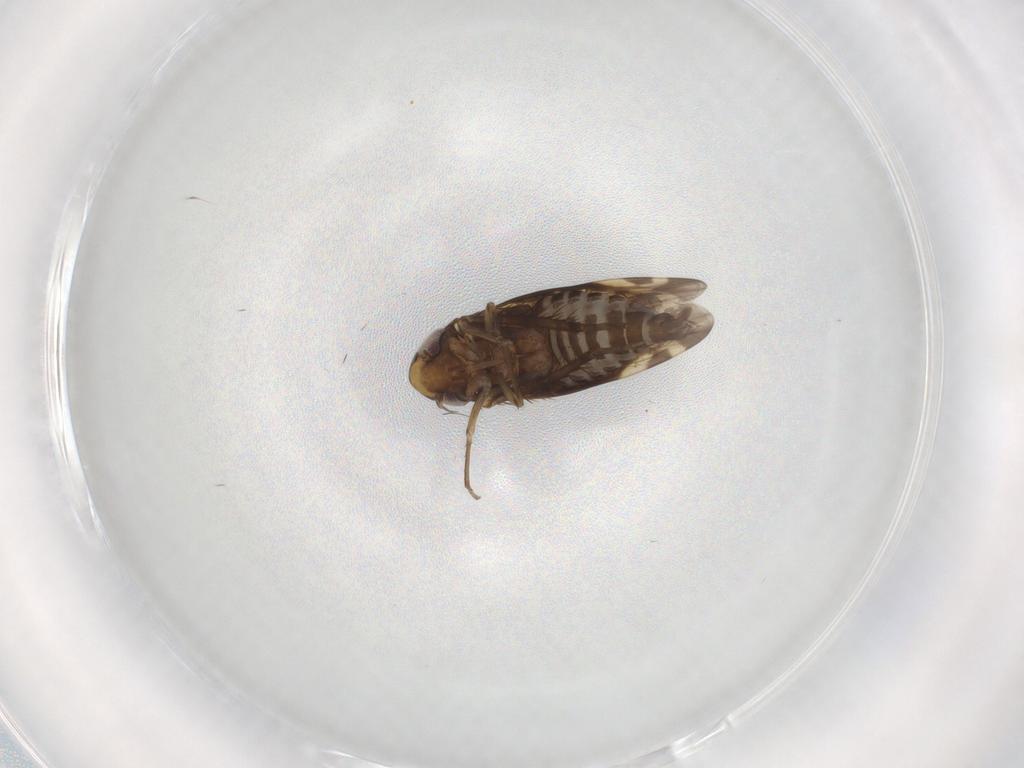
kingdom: Animalia
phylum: Arthropoda
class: Insecta
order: Hemiptera
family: Cicadellidae
